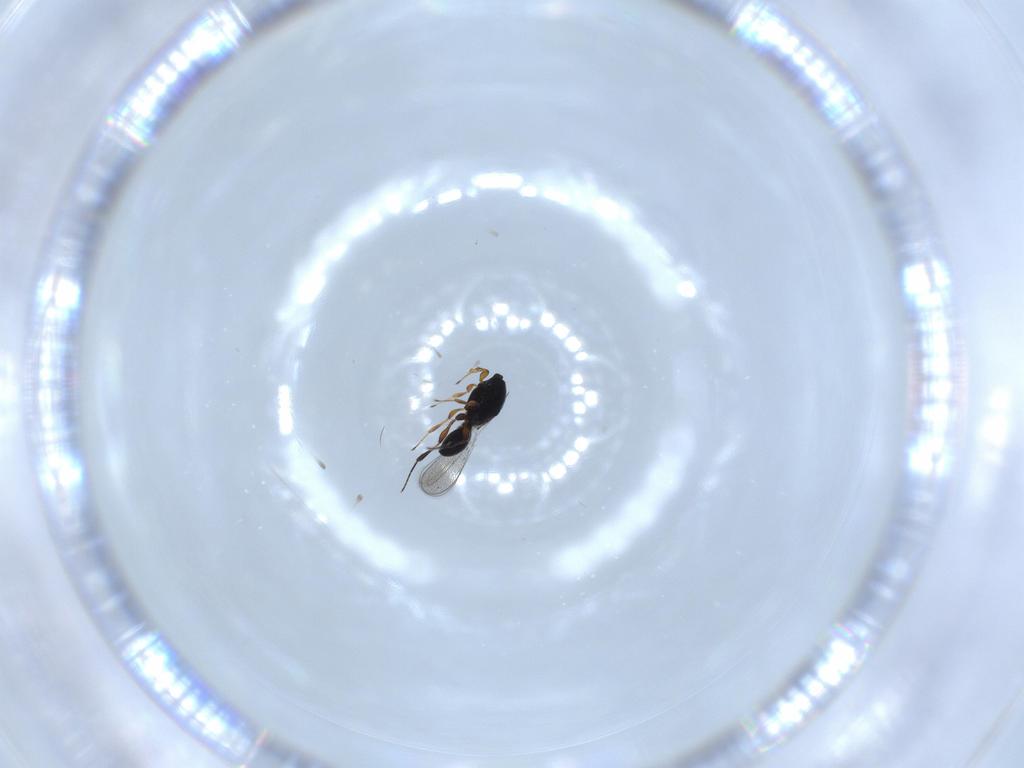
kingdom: Animalia
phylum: Arthropoda
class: Insecta
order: Hymenoptera
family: Platygastridae
